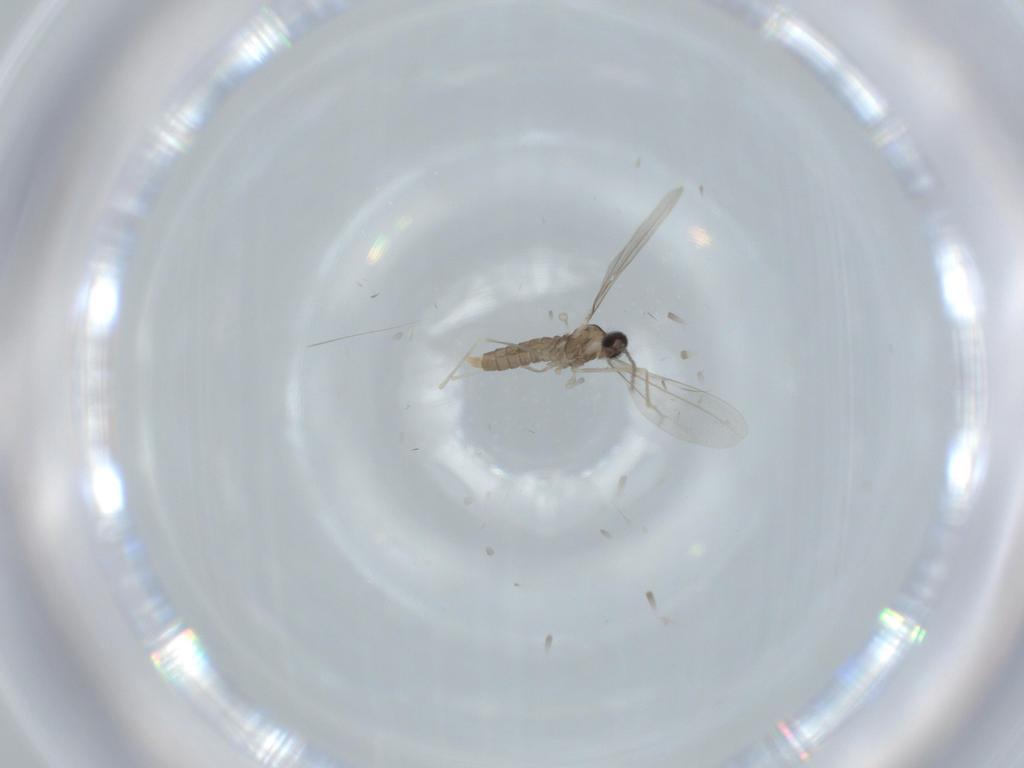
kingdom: Animalia
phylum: Arthropoda
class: Insecta
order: Diptera
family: Cecidomyiidae
